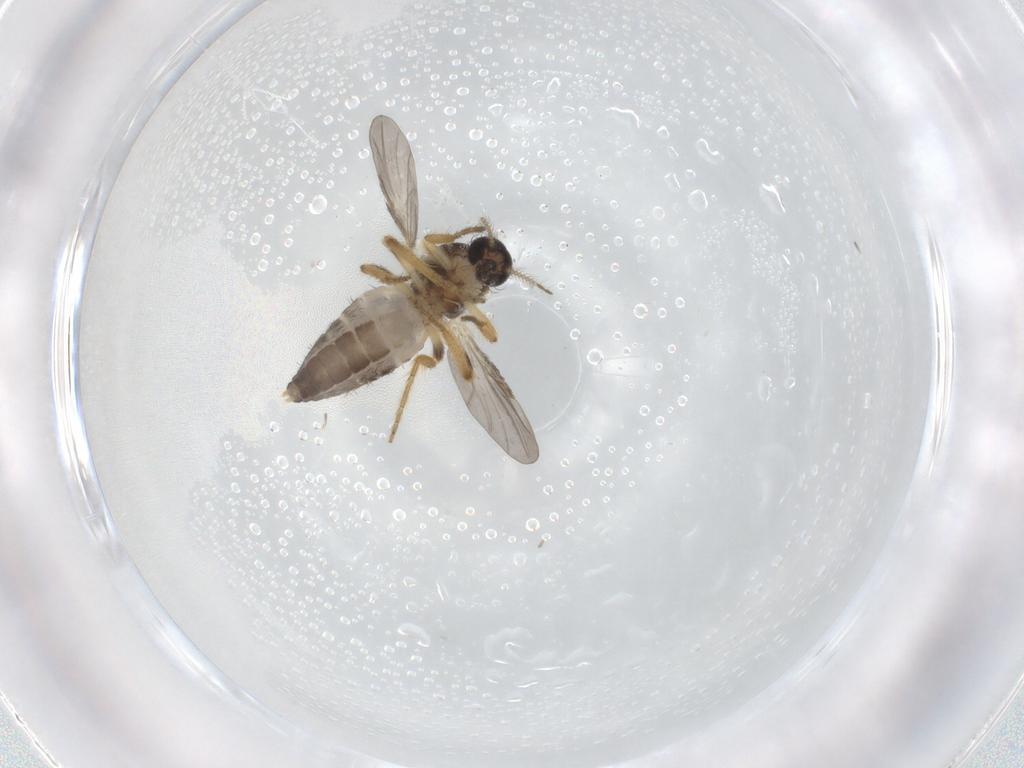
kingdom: Animalia
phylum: Arthropoda
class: Insecta
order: Diptera
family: Ceratopogonidae
